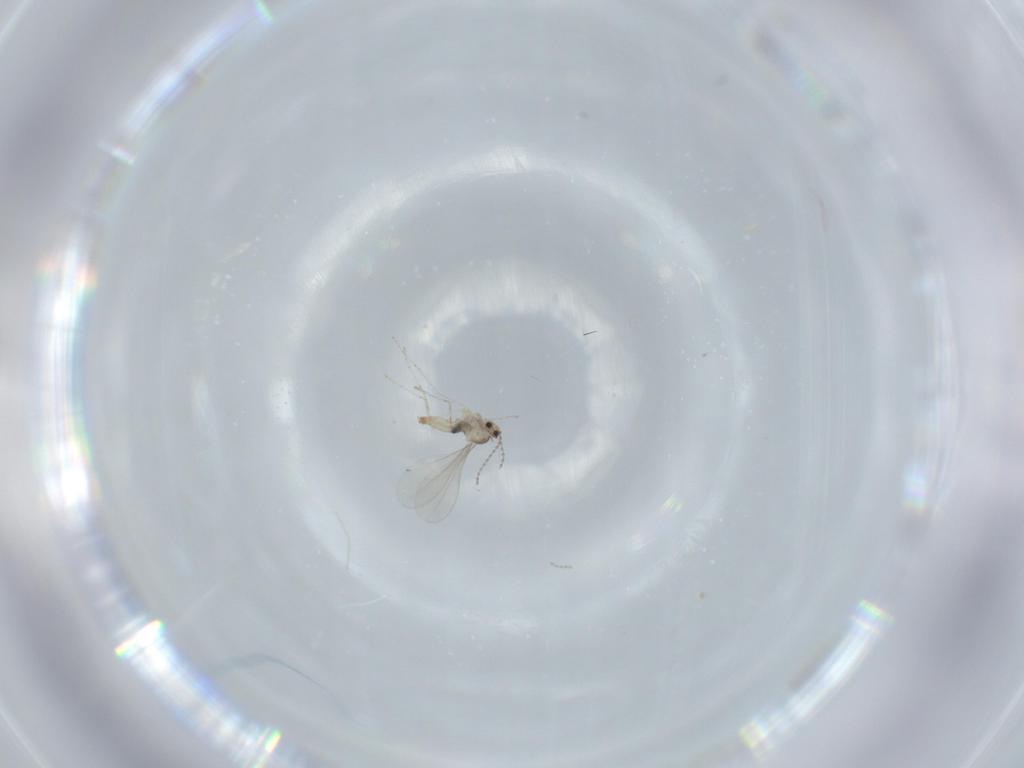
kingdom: Animalia
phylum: Arthropoda
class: Insecta
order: Diptera
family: Cecidomyiidae
